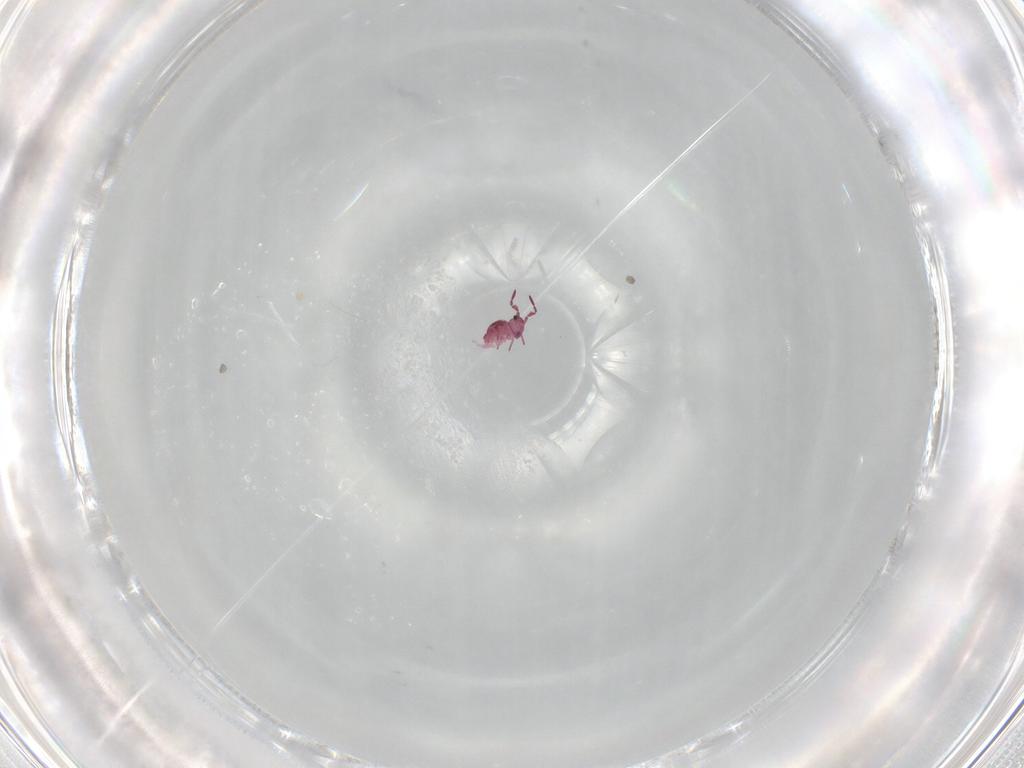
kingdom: Animalia
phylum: Arthropoda
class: Collembola
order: Symphypleona
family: Sminthurididae
